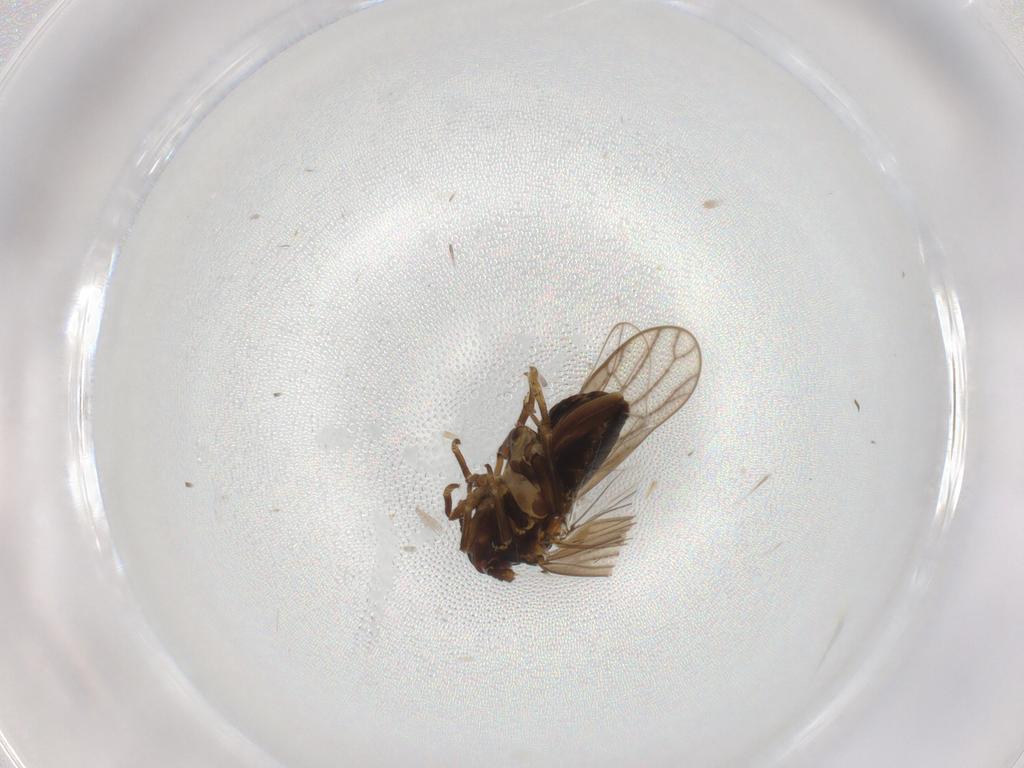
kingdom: Animalia
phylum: Arthropoda
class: Insecta
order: Hemiptera
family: Delphacidae
